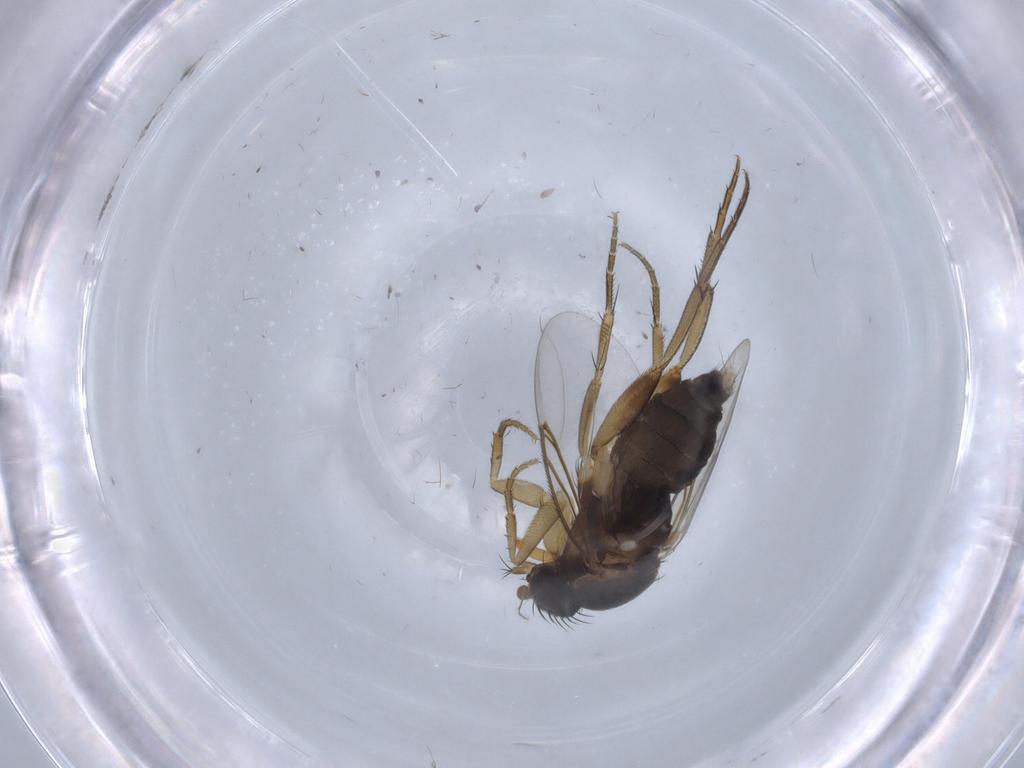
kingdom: Animalia
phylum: Arthropoda
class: Insecta
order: Diptera
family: Phoridae
